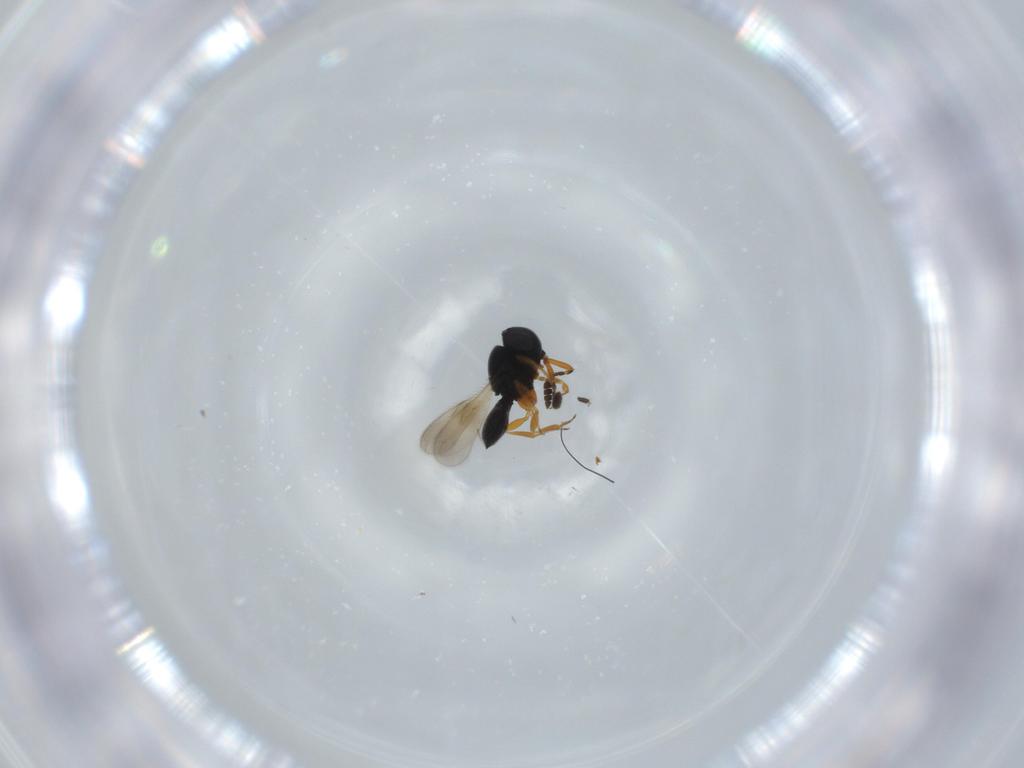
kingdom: Animalia
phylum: Arthropoda
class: Insecta
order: Hymenoptera
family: Scelionidae
